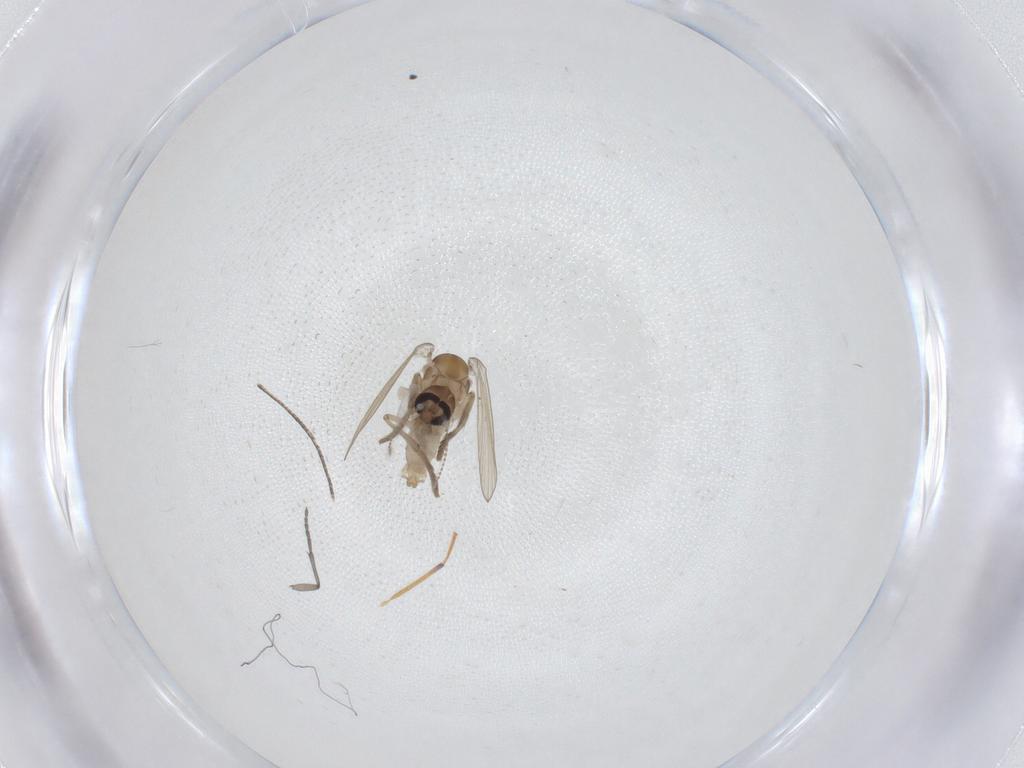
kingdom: Animalia
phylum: Arthropoda
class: Insecta
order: Diptera
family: Psychodidae
